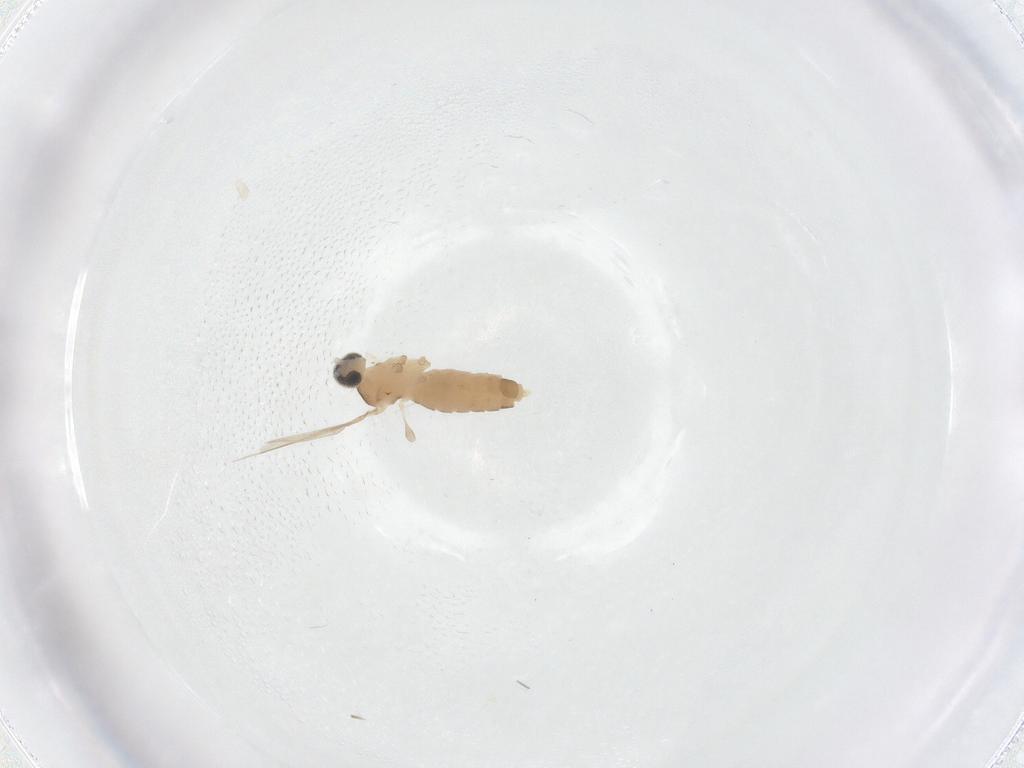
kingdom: Animalia
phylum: Arthropoda
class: Insecta
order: Diptera
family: Cecidomyiidae
